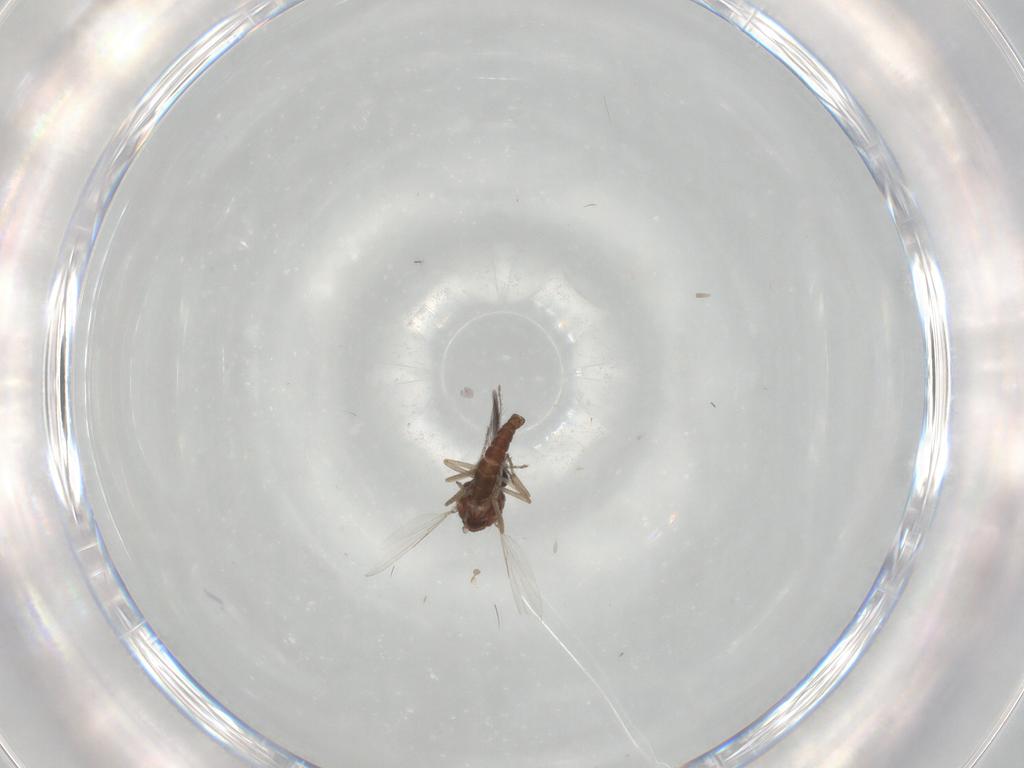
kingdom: Animalia
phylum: Arthropoda
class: Insecta
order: Diptera
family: Ceratopogonidae
